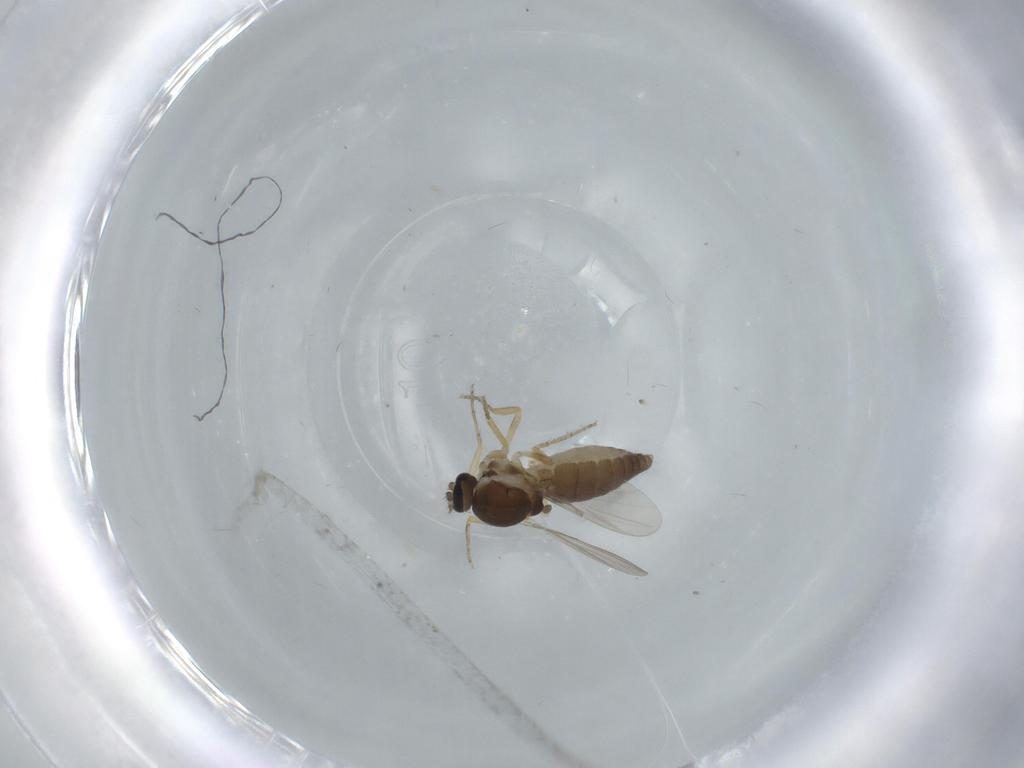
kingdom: Animalia
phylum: Arthropoda
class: Insecta
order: Diptera
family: Ceratopogonidae
